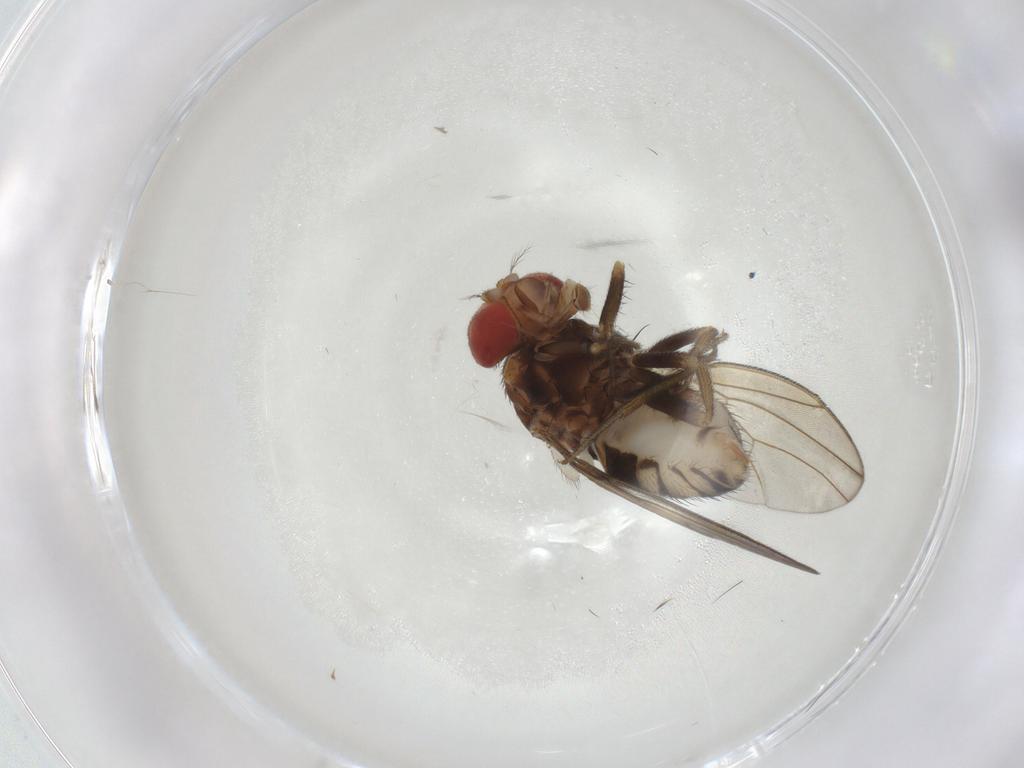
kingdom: Animalia
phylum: Arthropoda
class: Insecta
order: Diptera
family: Drosophilidae
